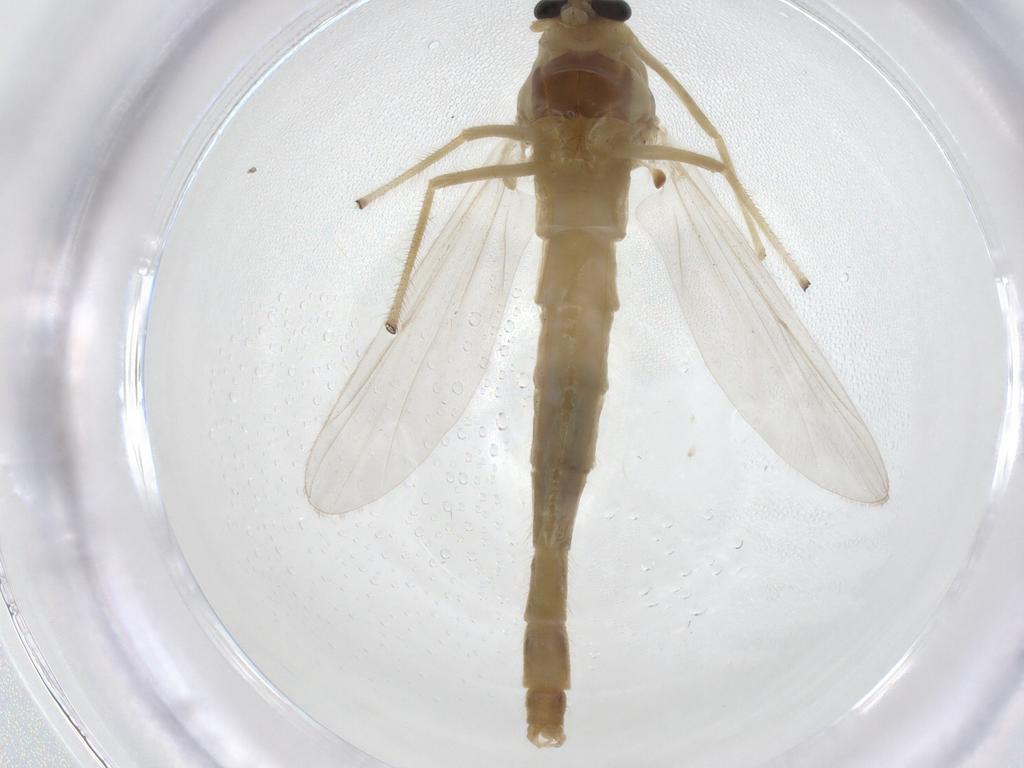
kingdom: Animalia
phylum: Arthropoda
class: Insecta
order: Diptera
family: Chironomidae
